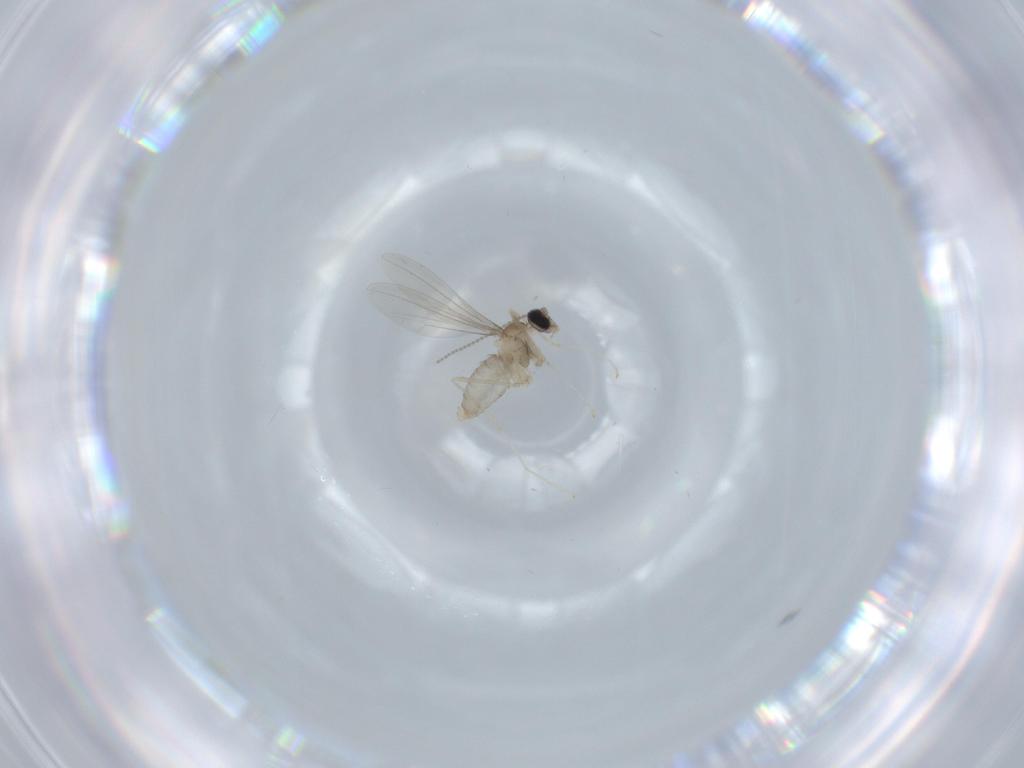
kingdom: Animalia
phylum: Arthropoda
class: Insecta
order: Diptera
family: Cecidomyiidae
